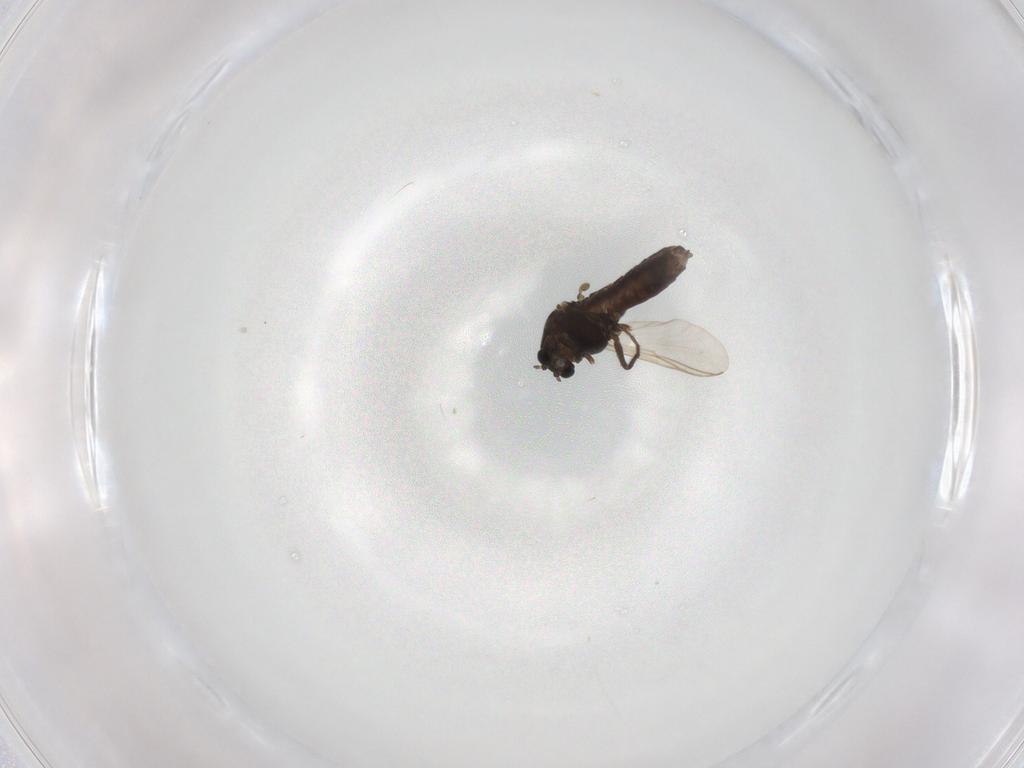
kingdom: Animalia
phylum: Arthropoda
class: Insecta
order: Diptera
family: Chironomidae
